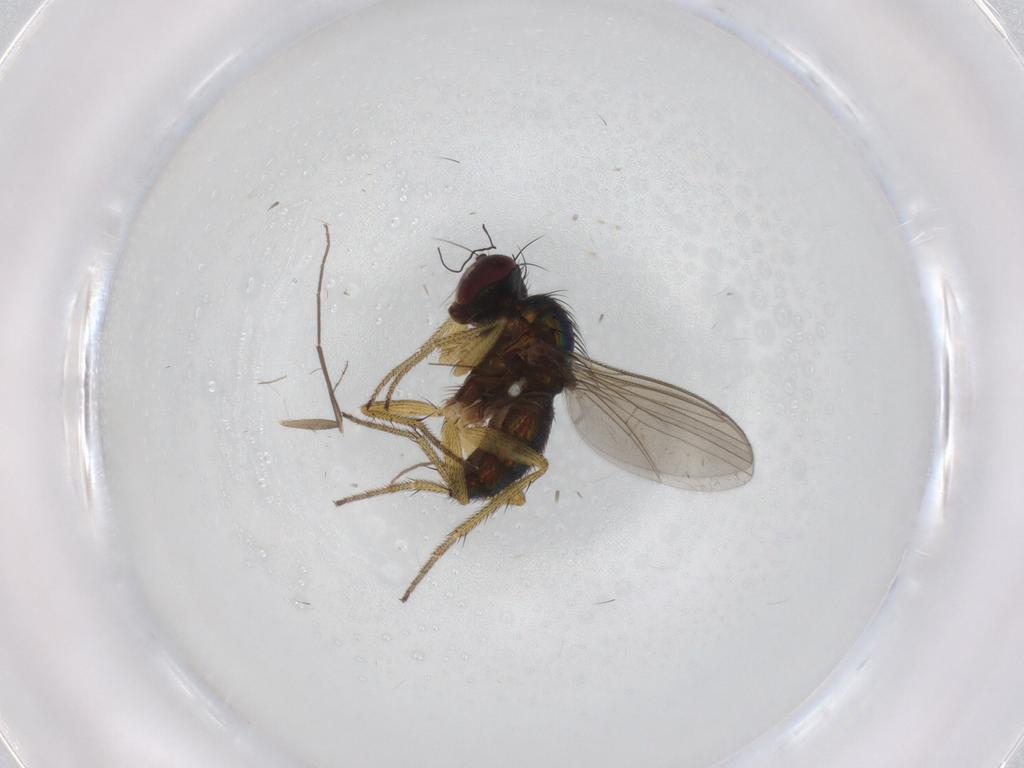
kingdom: Animalia
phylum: Arthropoda
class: Insecta
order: Diptera
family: Dolichopodidae
